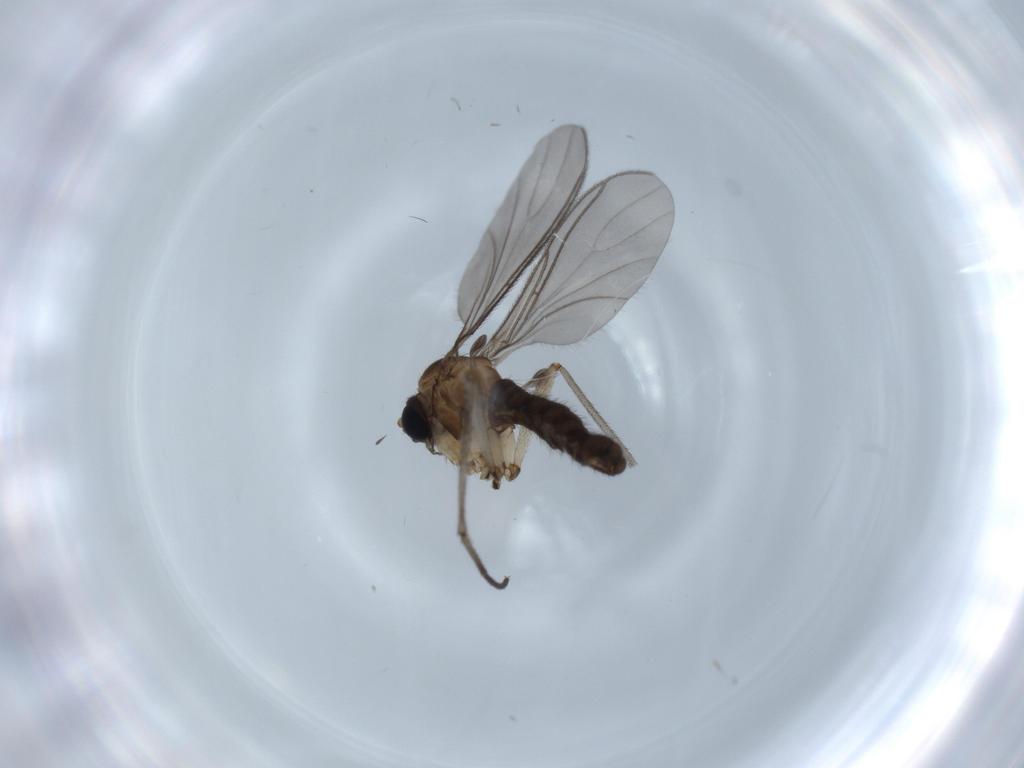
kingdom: Animalia
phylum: Arthropoda
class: Insecta
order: Diptera
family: Sciaridae
